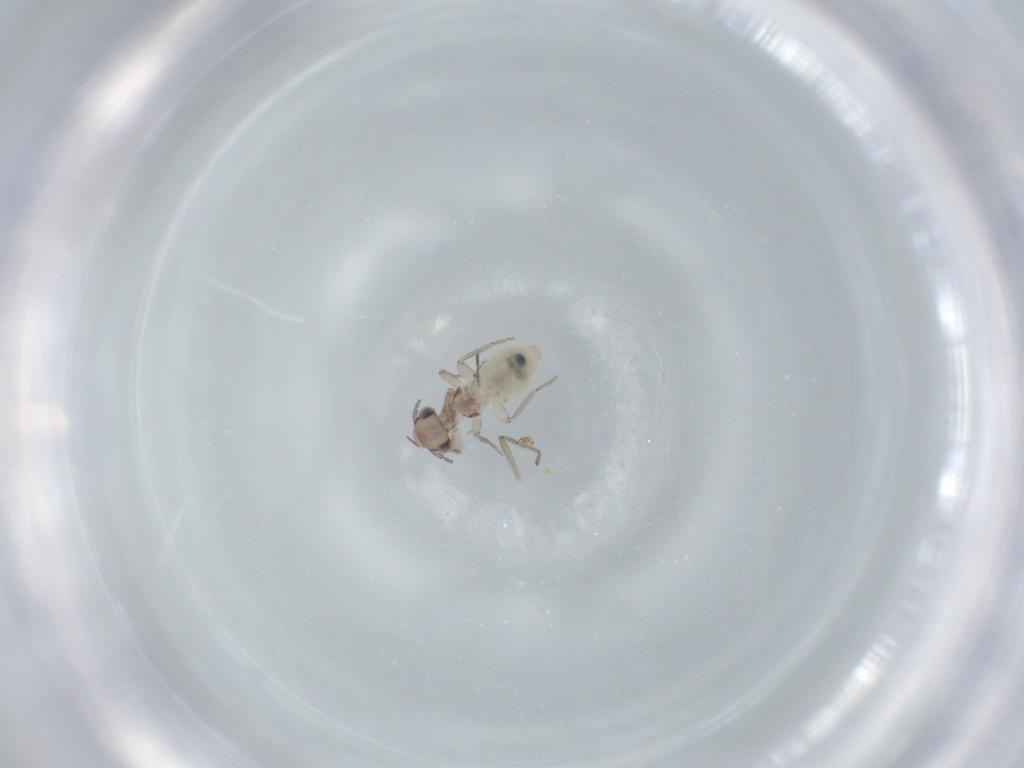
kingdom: Animalia
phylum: Arthropoda
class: Insecta
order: Psocodea
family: Lepidopsocidae
